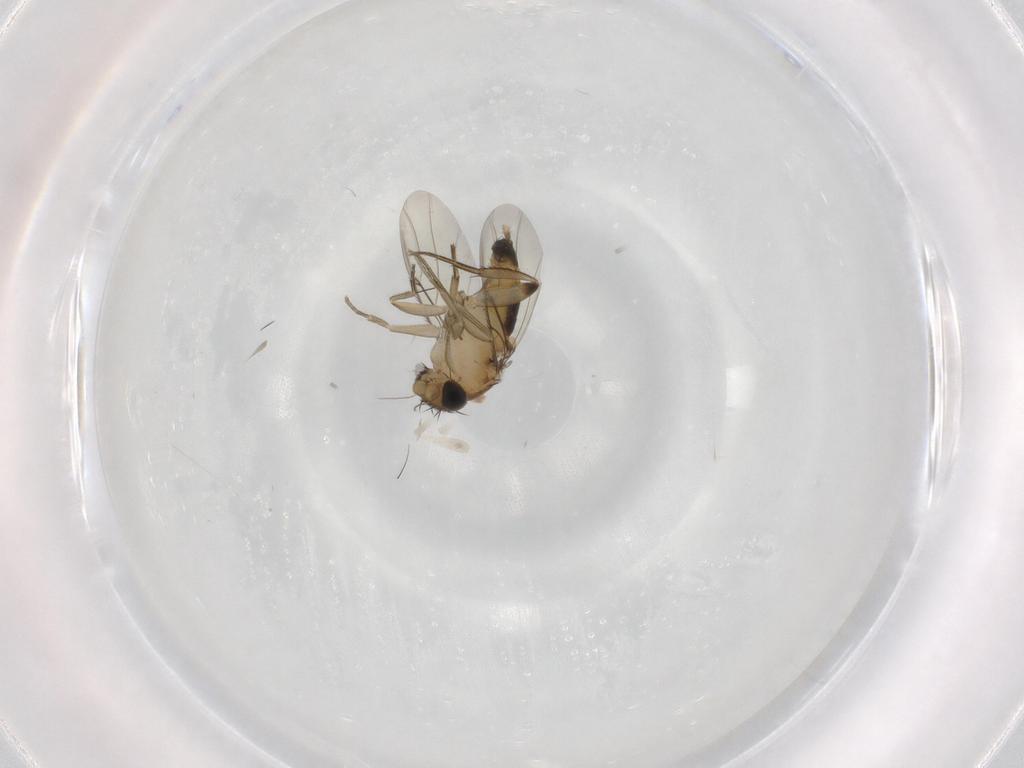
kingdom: Animalia
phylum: Arthropoda
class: Insecta
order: Diptera
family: Phoridae
